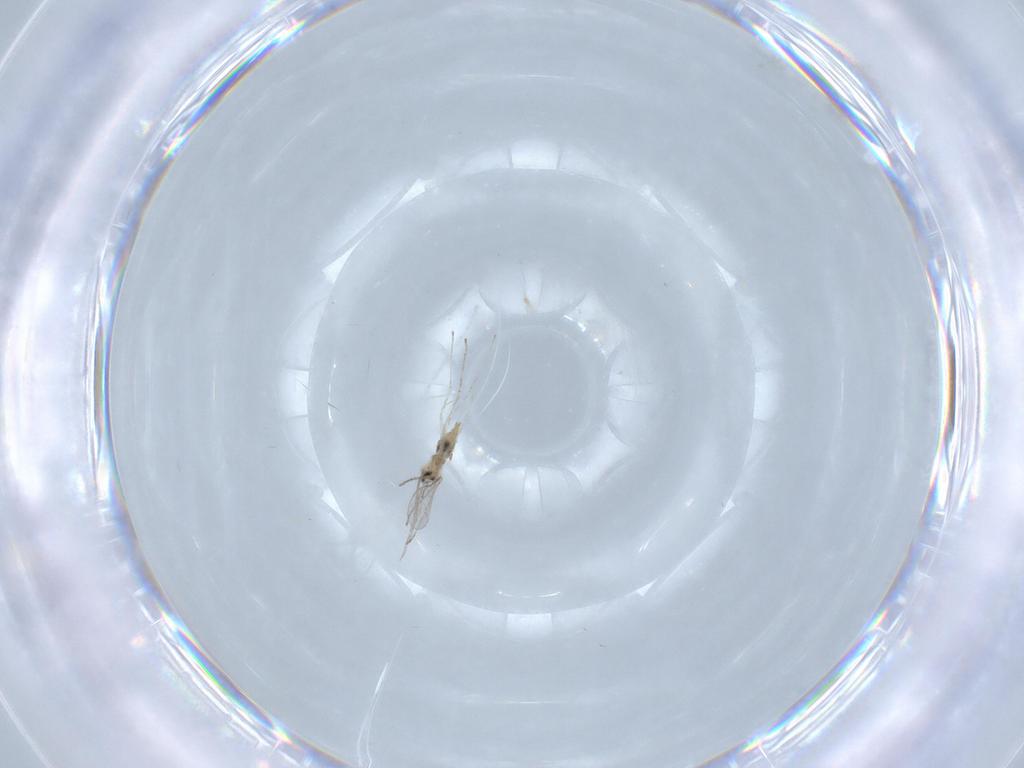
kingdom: Animalia
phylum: Arthropoda
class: Insecta
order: Diptera
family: Cecidomyiidae
